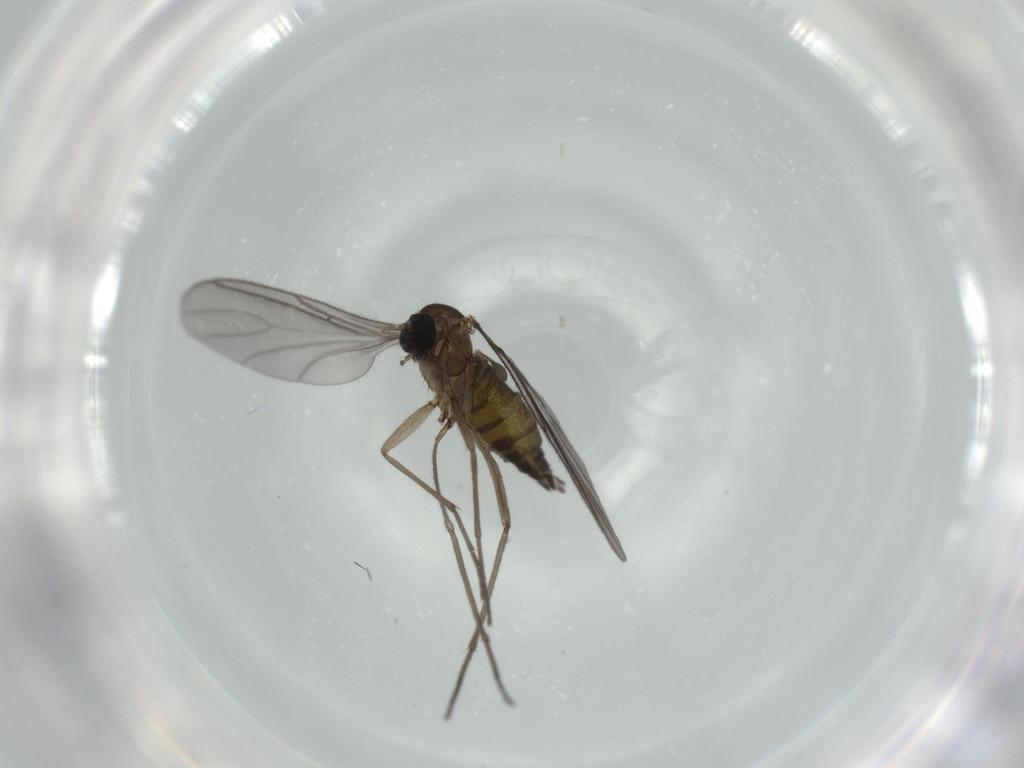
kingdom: Animalia
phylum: Arthropoda
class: Insecta
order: Diptera
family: Sciaridae
